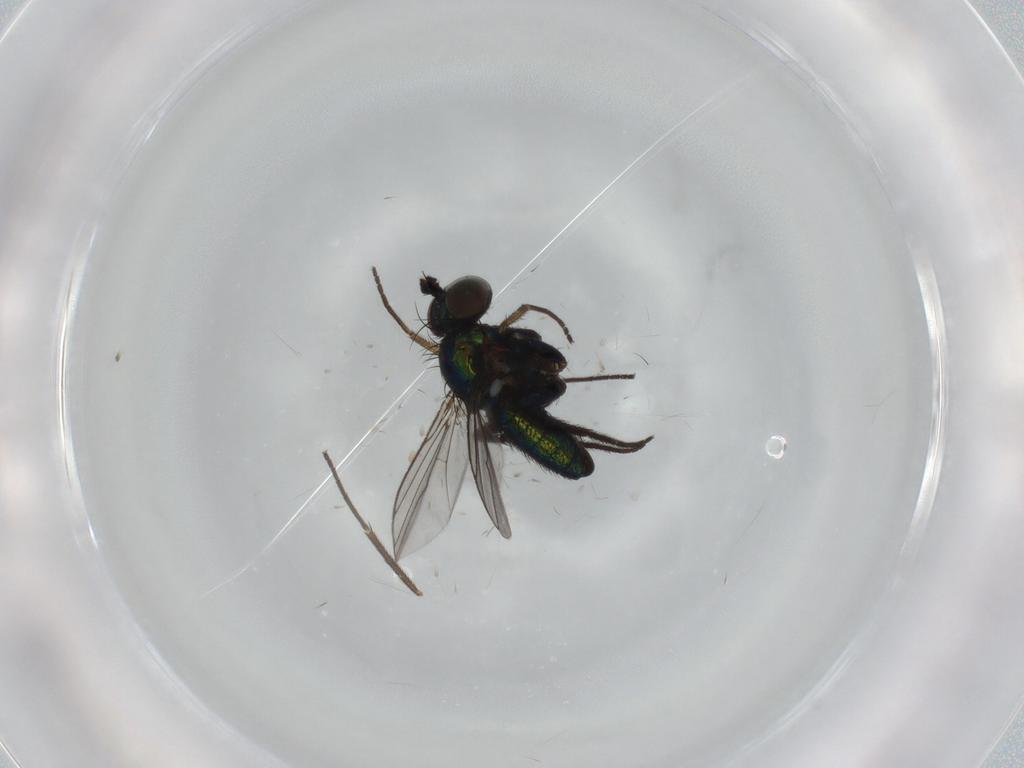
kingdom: Animalia
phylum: Arthropoda
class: Insecta
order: Diptera
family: Dolichopodidae
